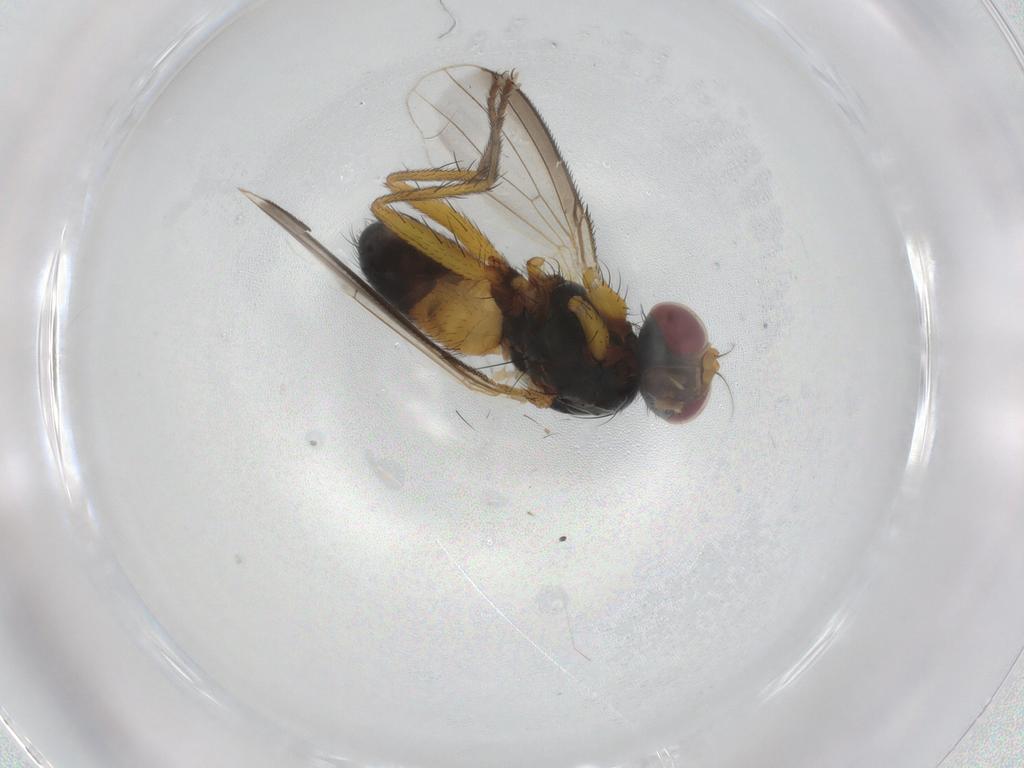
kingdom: Animalia
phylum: Arthropoda
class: Insecta
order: Diptera
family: Muscidae
